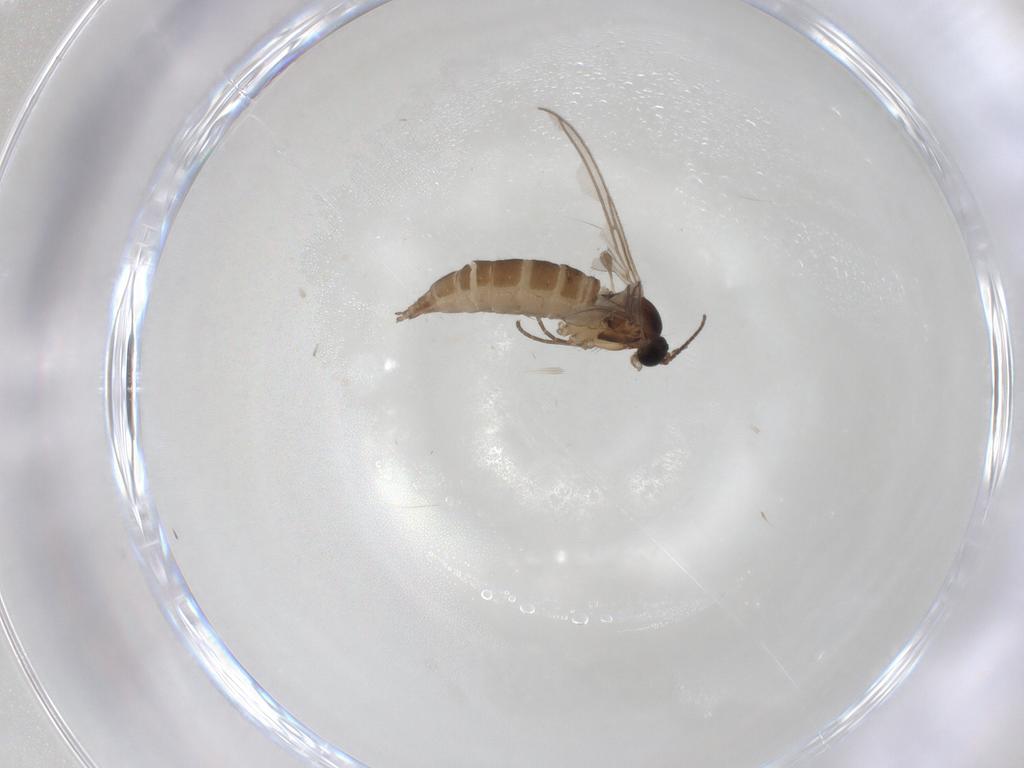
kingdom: Animalia
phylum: Arthropoda
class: Insecta
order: Diptera
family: Sciaridae
